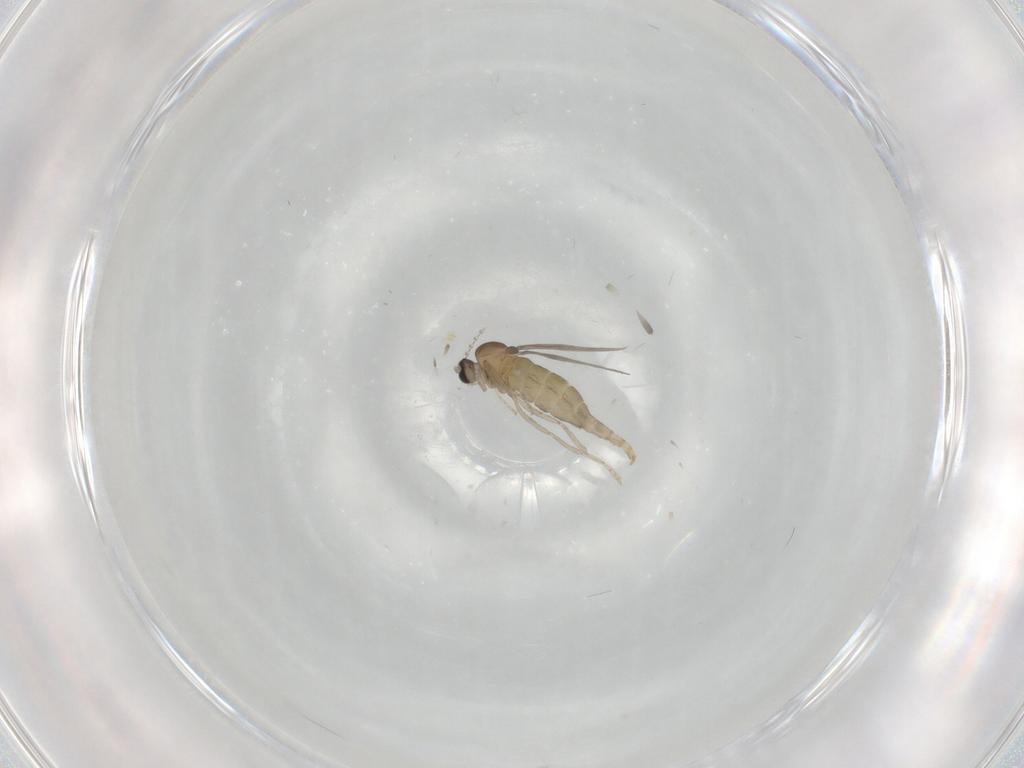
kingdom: Animalia
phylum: Arthropoda
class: Insecta
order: Diptera
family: Cecidomyiidae
